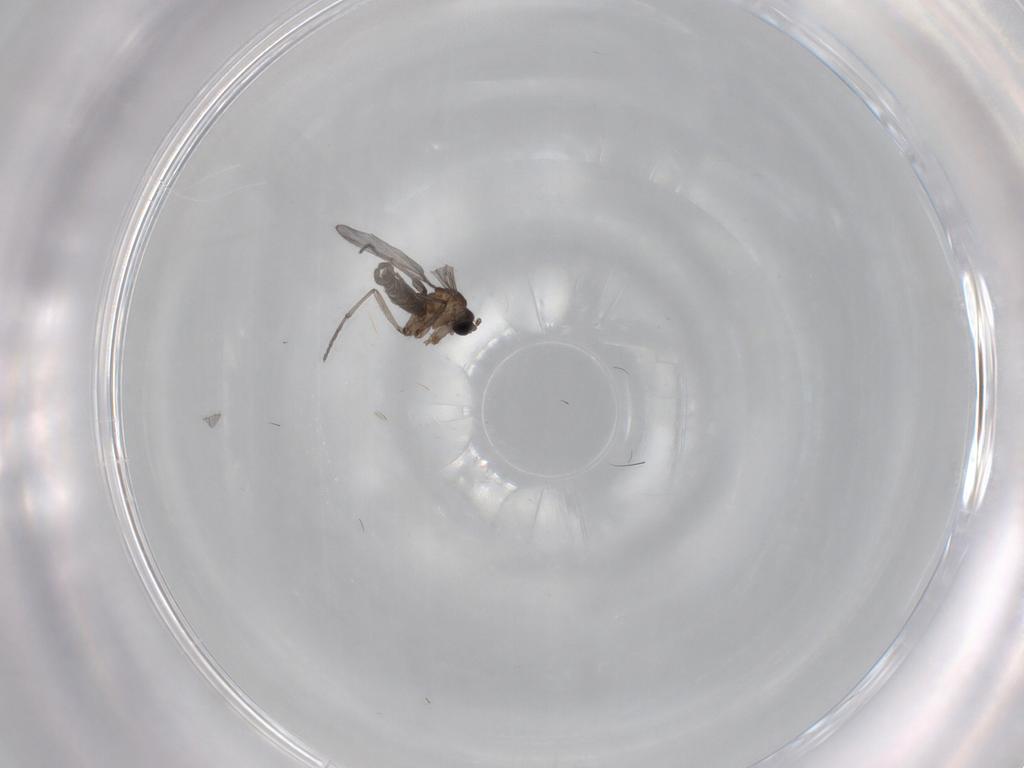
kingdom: Animalia
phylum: Arthropoda
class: Insecta
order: Diptera
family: Sciaridae
